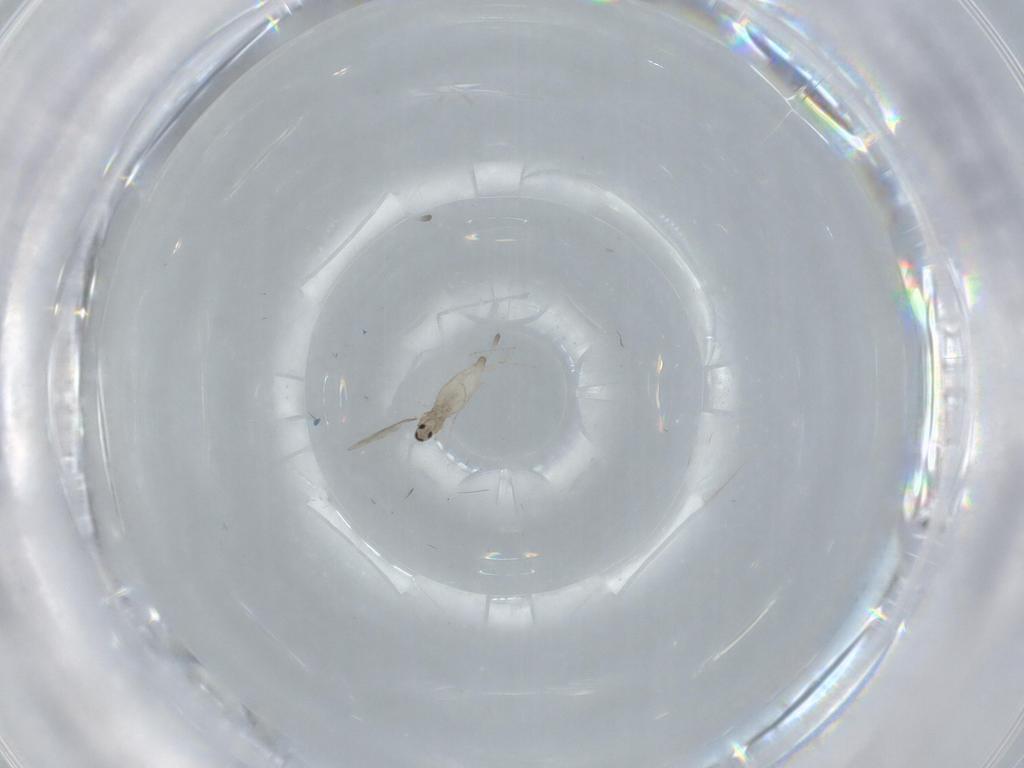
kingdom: Animalia
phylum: Arthropoda
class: Insecta
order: Diptera
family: Cecidomyiidae
